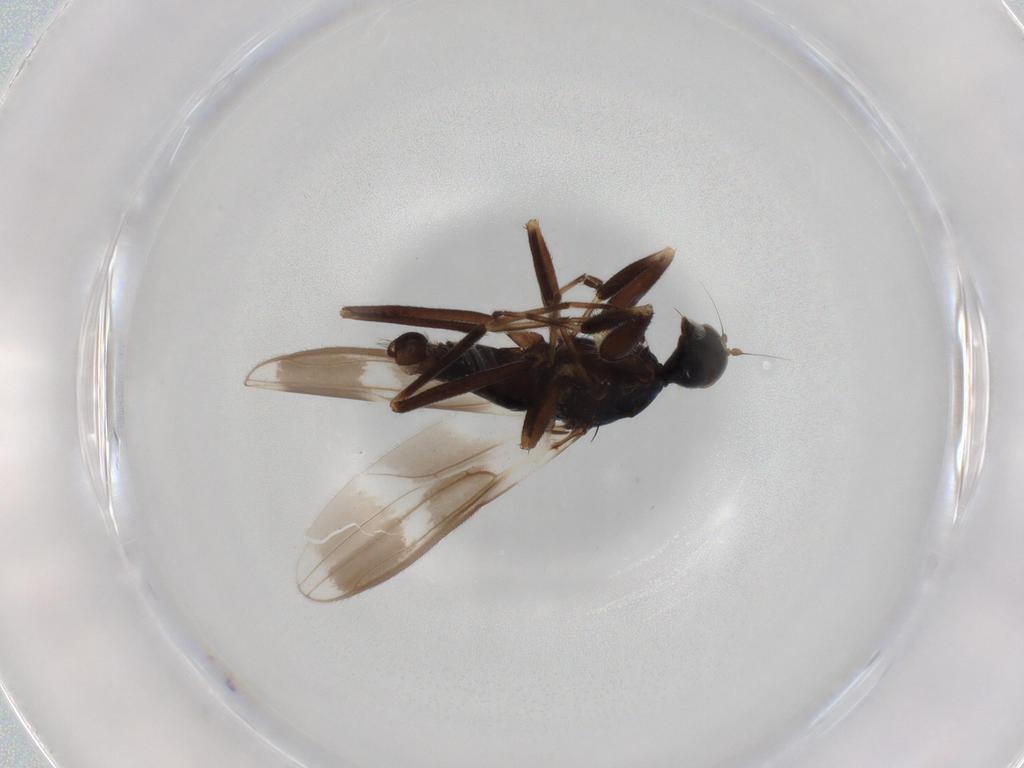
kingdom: Animalia
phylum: Arthropoda
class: Insecta
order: Diptera
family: Hybotidae
